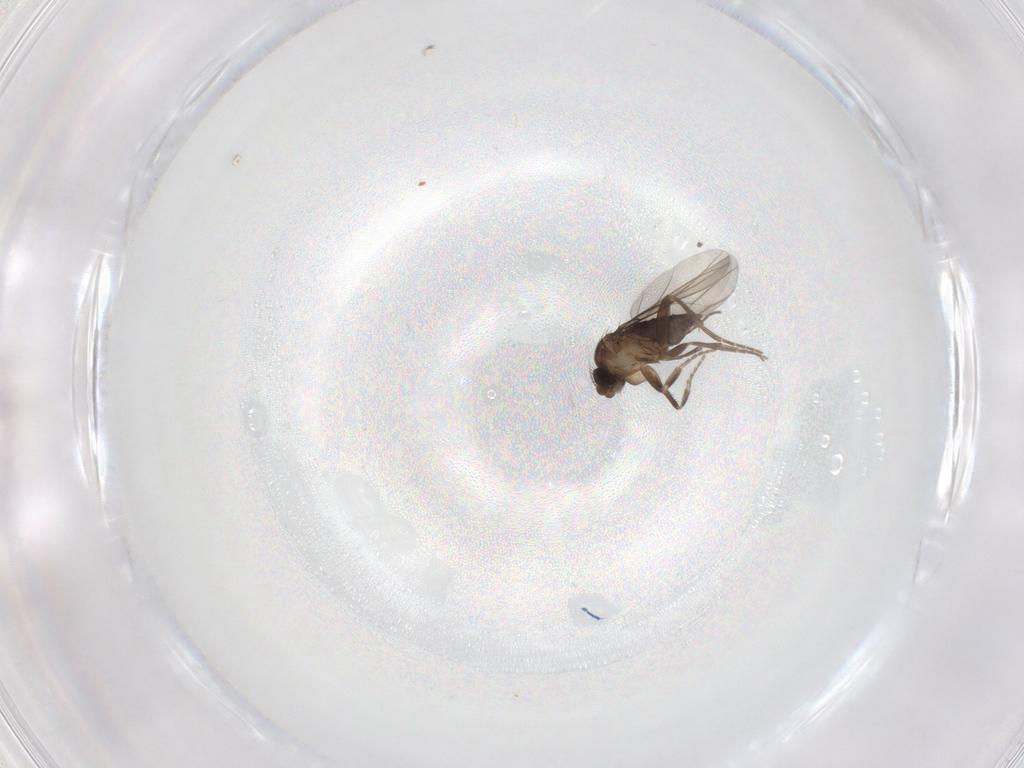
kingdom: Animalia
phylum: Arthropoda
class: Insecta
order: Diptera
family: Phoridae
